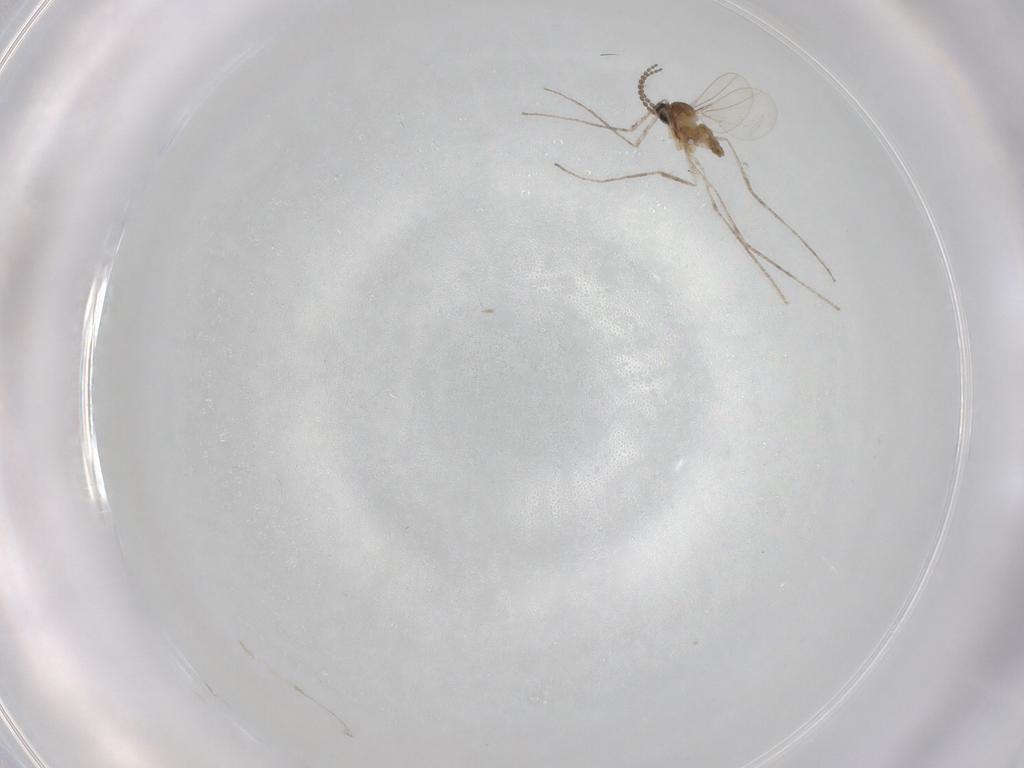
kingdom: Animalia
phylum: Arthropoda
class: Insecta
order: Diptera
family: Cecidomyiidae
